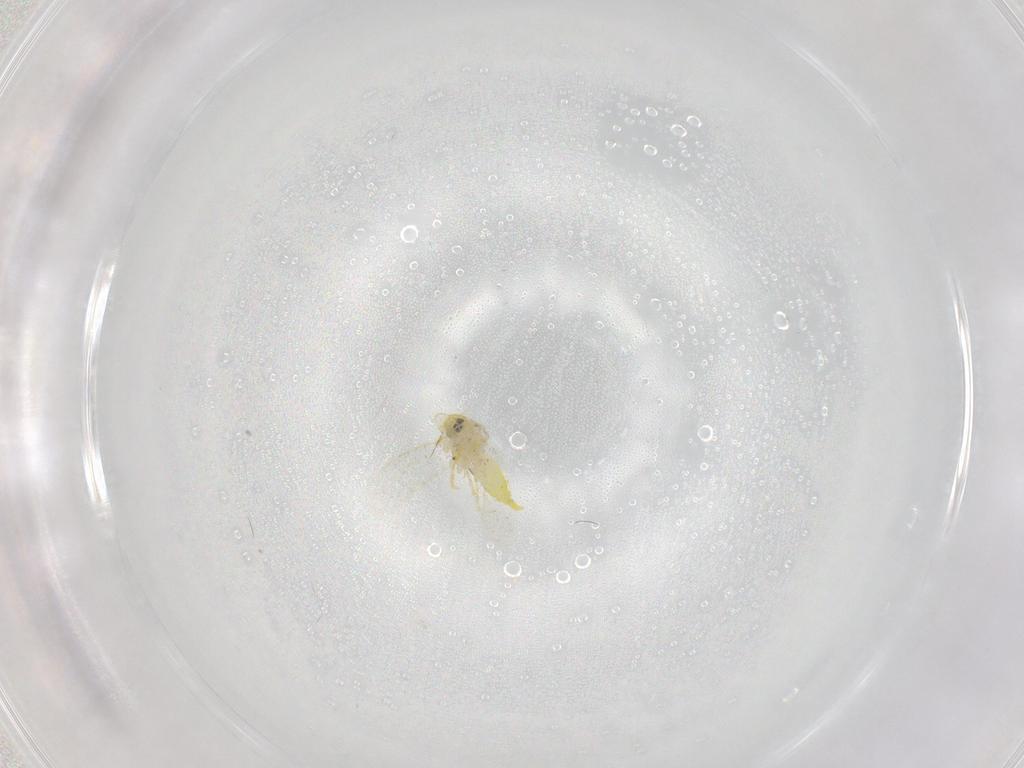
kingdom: Animalia
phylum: Arthropoda
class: Insecta
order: Hemiptera
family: Aleyrodidae
